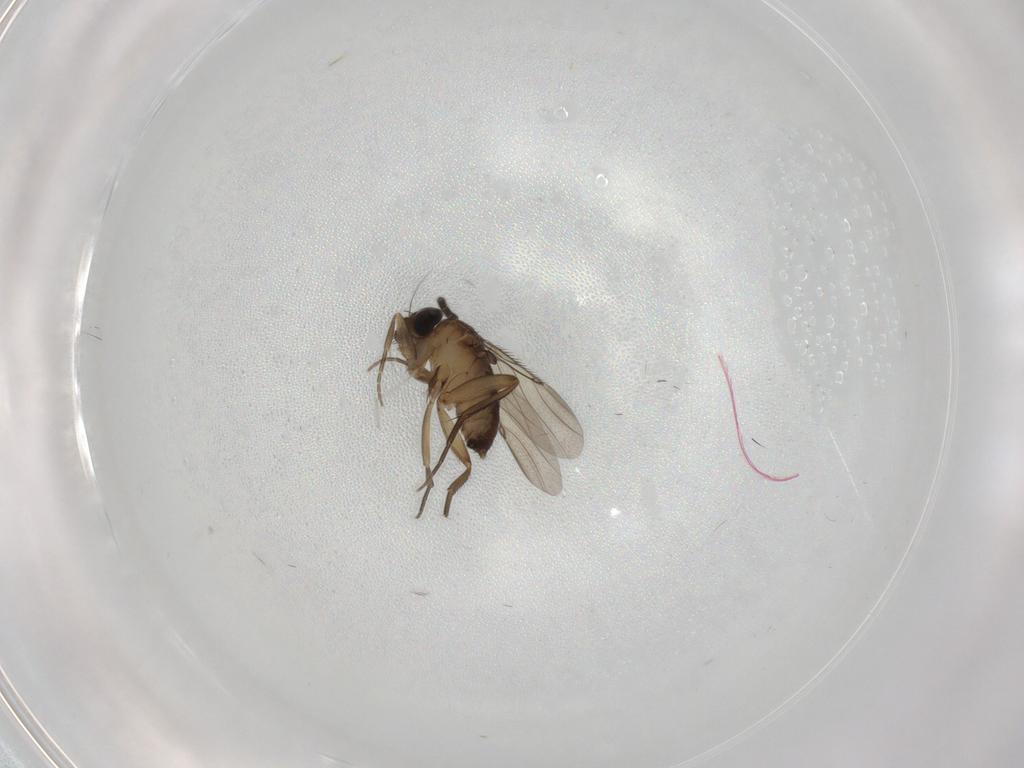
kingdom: Animalia
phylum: Arthropoda
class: Insecta
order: Diptera
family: Phoridae
